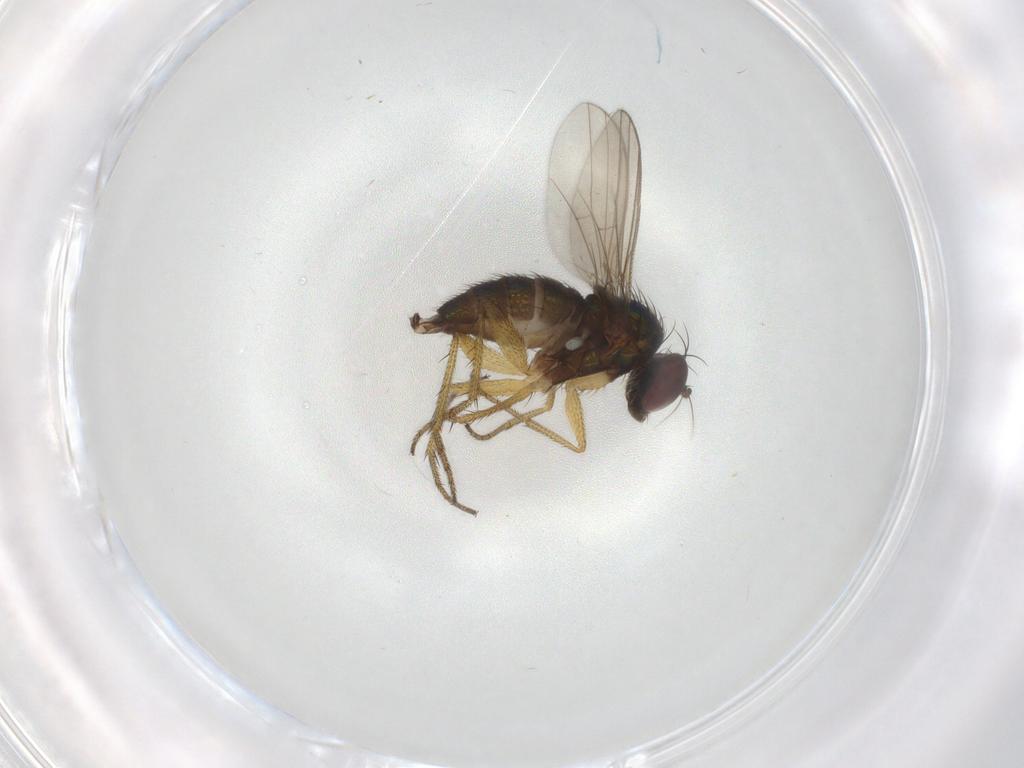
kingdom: Animalia
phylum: Arthropoda
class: Insecta
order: Diptera
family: Dolichopodidae
